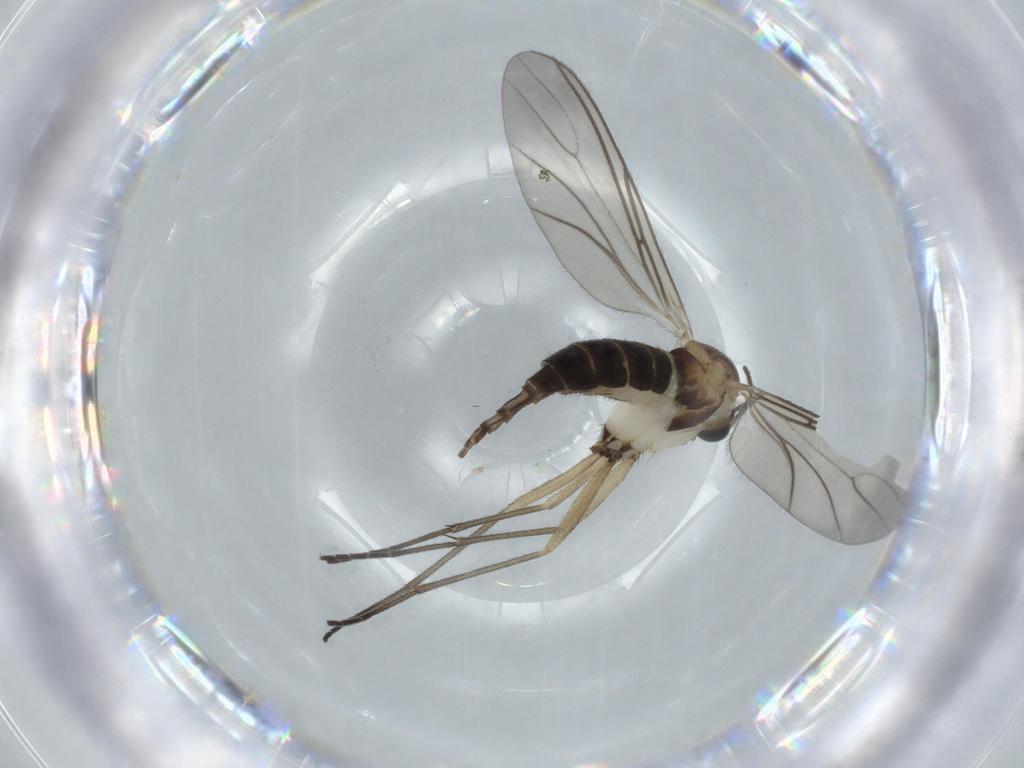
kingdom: Animalia
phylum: Arthropoda
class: Insecta
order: Diptera
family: Sciaridae
